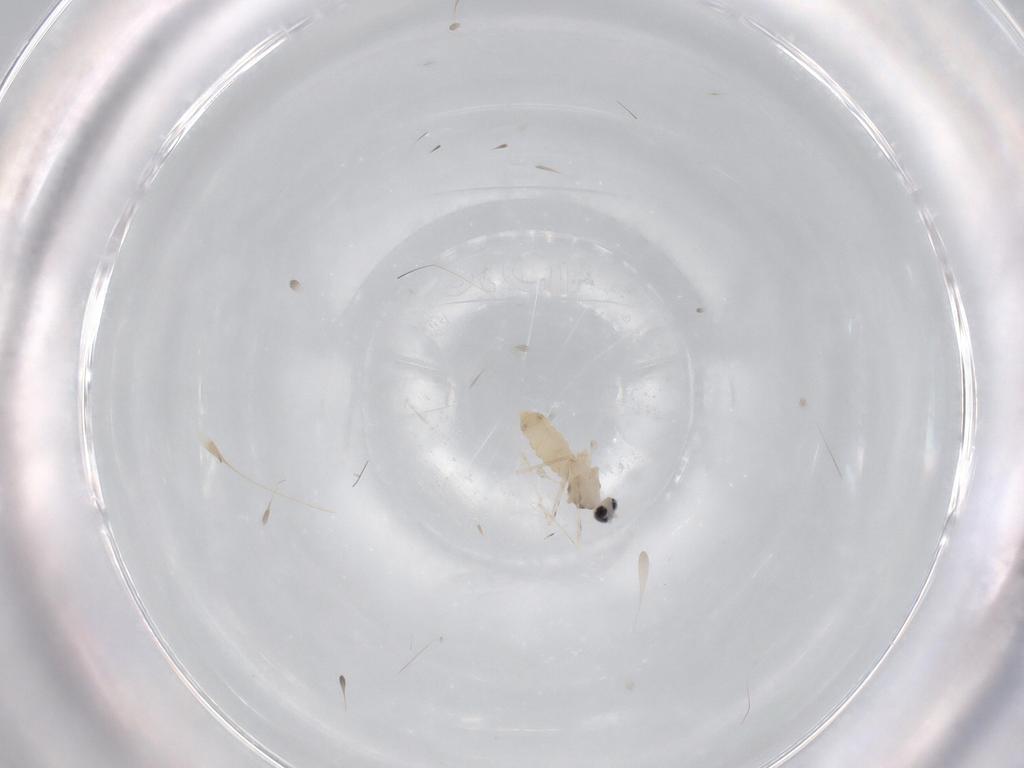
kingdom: Animalia
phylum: Arthropoda
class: Insecta
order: Diptera
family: Cecidomyiidae
